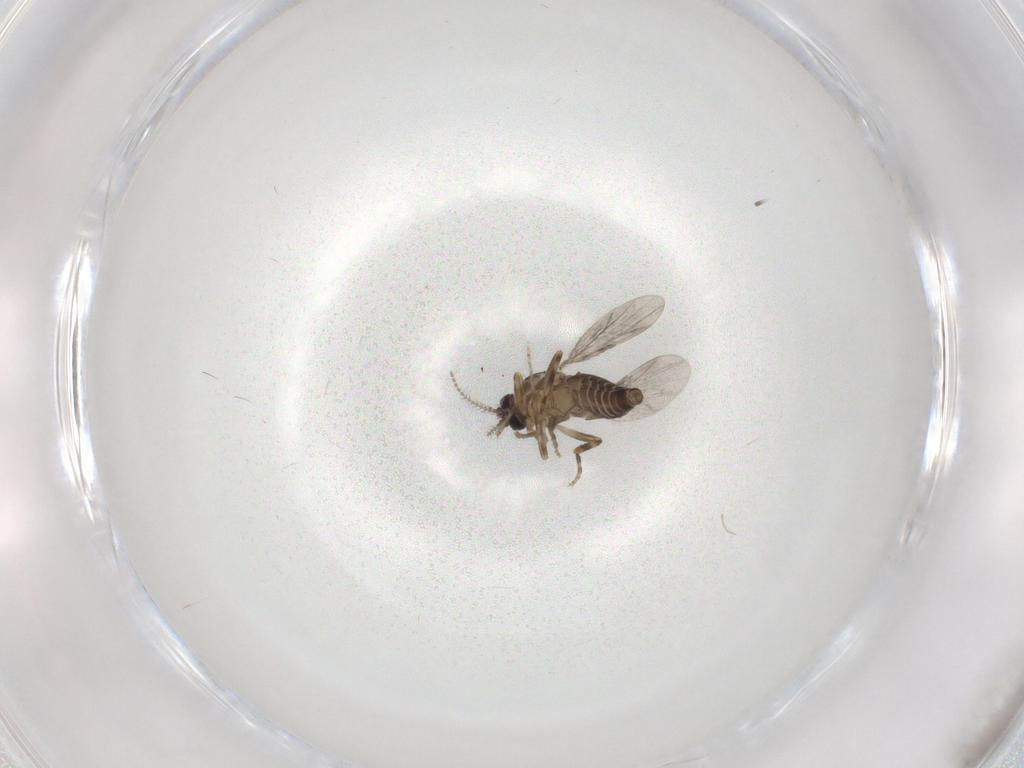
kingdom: Animalia
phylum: Arthropoda
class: Insecta
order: Diptera
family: Ceratopogonidae
